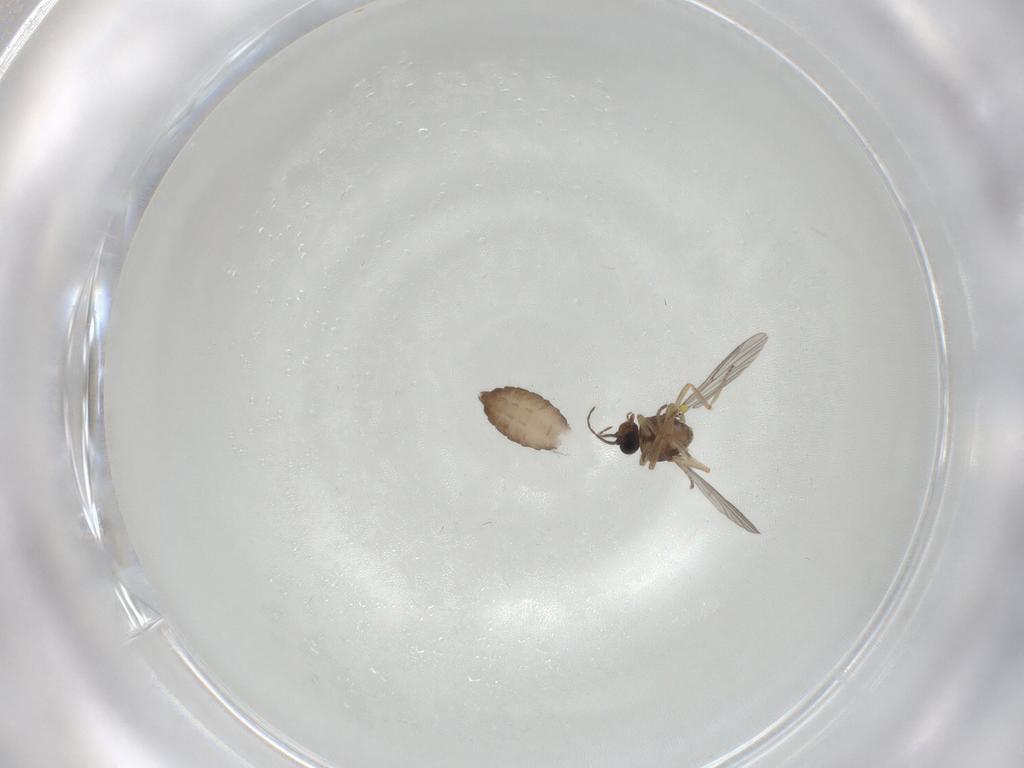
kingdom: Animalia
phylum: Arthropoda
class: Insecta
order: Diptera
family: Ceratopogonidae
